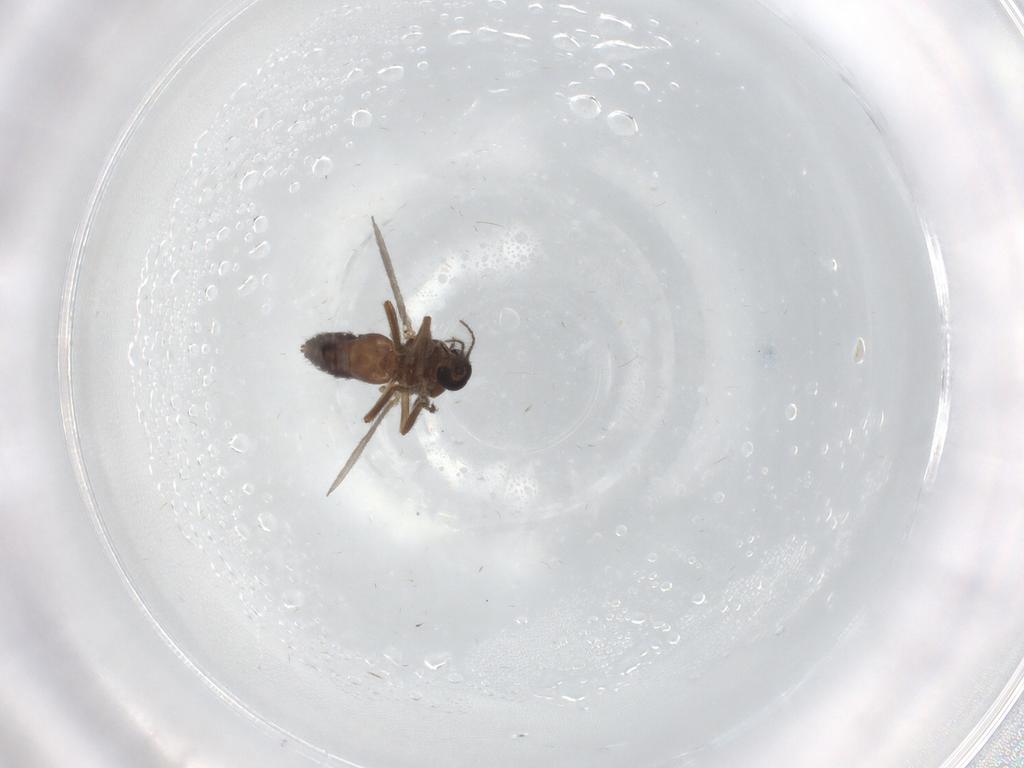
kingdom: Animalia
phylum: Arthropoda
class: Insecta
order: Diptera
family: Ceratopogonidae
